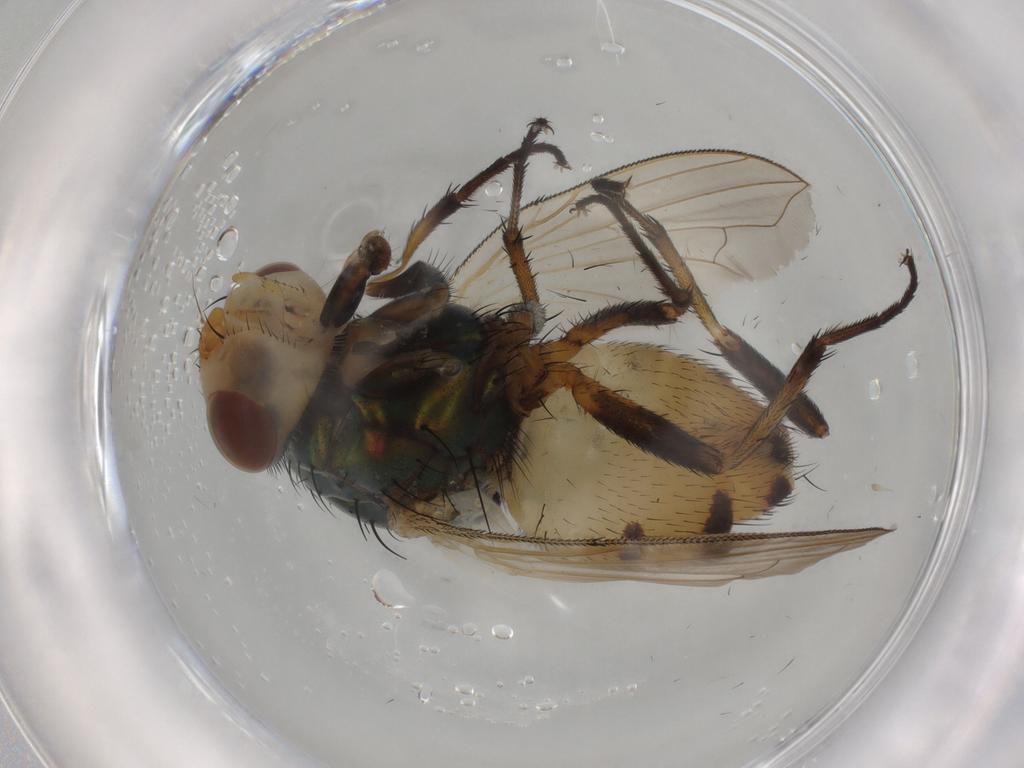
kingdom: Animalia
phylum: Arthropoda
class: Insecta
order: Diptera
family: Calliphoridae
